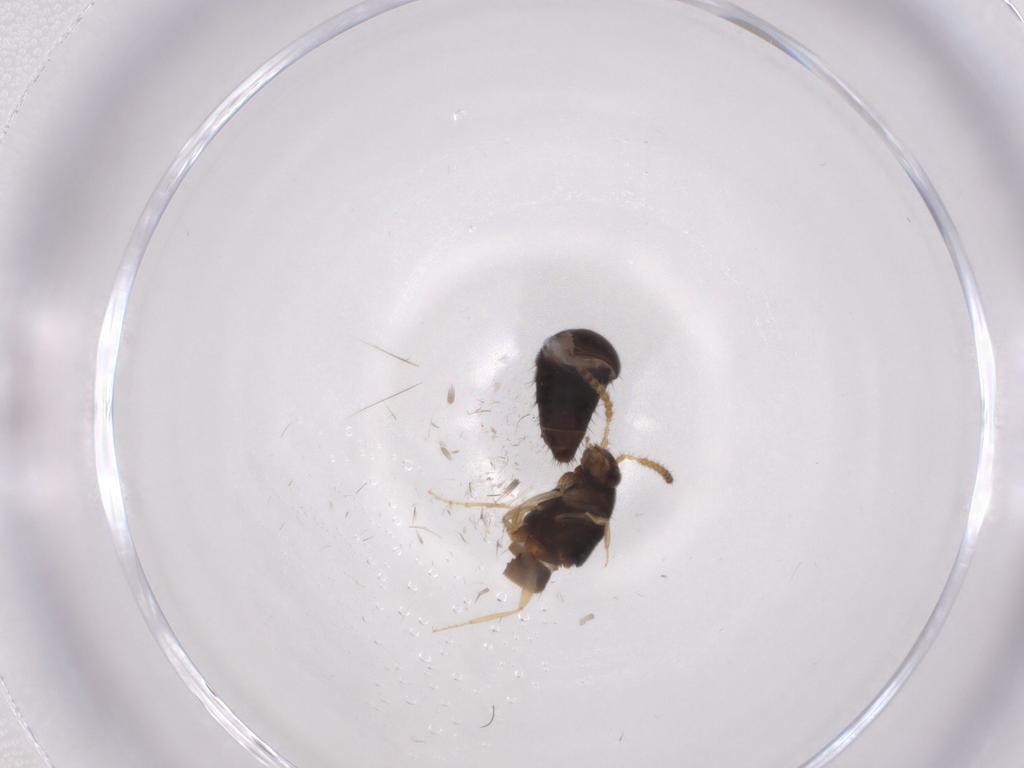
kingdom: Animalia
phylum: Arthropoda
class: Insecta
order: Coleoptera
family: Staphylinidae
